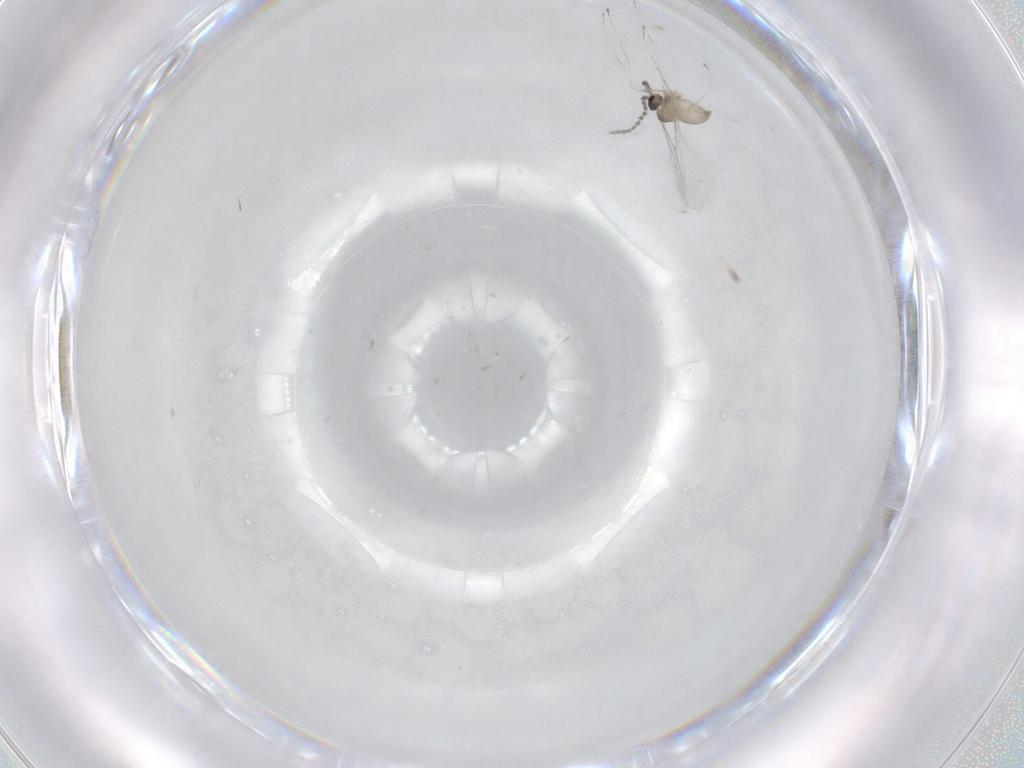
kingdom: Animalia
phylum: Arthropoda
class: Insecta
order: Diptera
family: Cecidomyiidae
